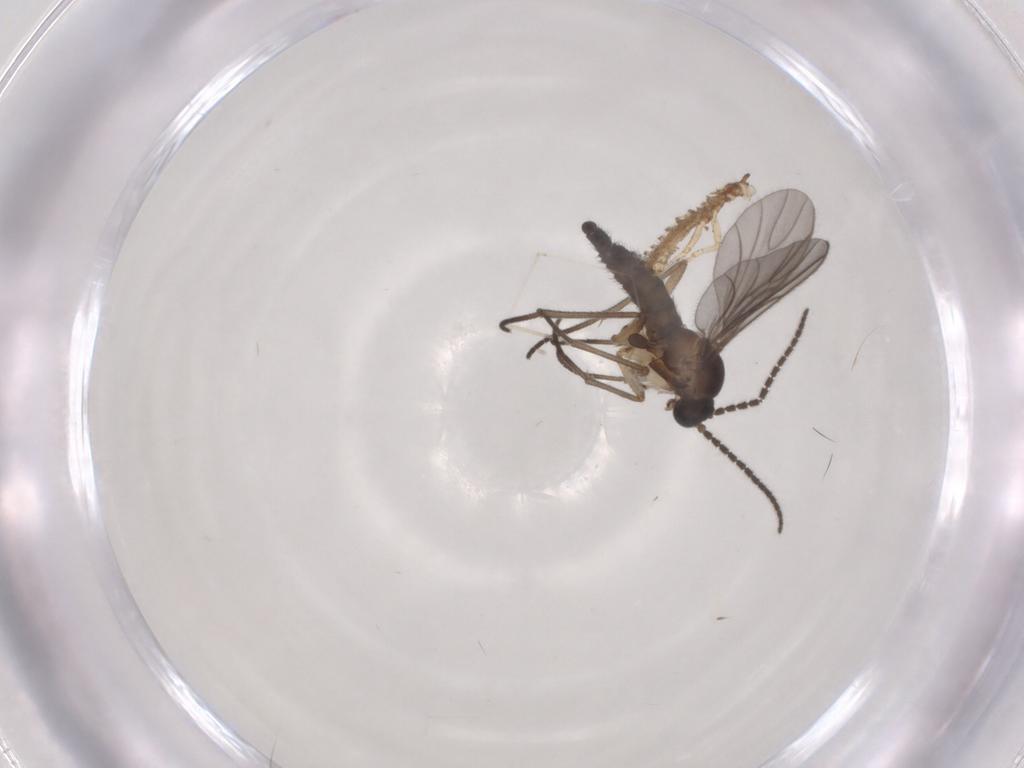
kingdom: Animalia
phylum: Arthropoda
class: Insecta
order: Diptera
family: Sciaridae
